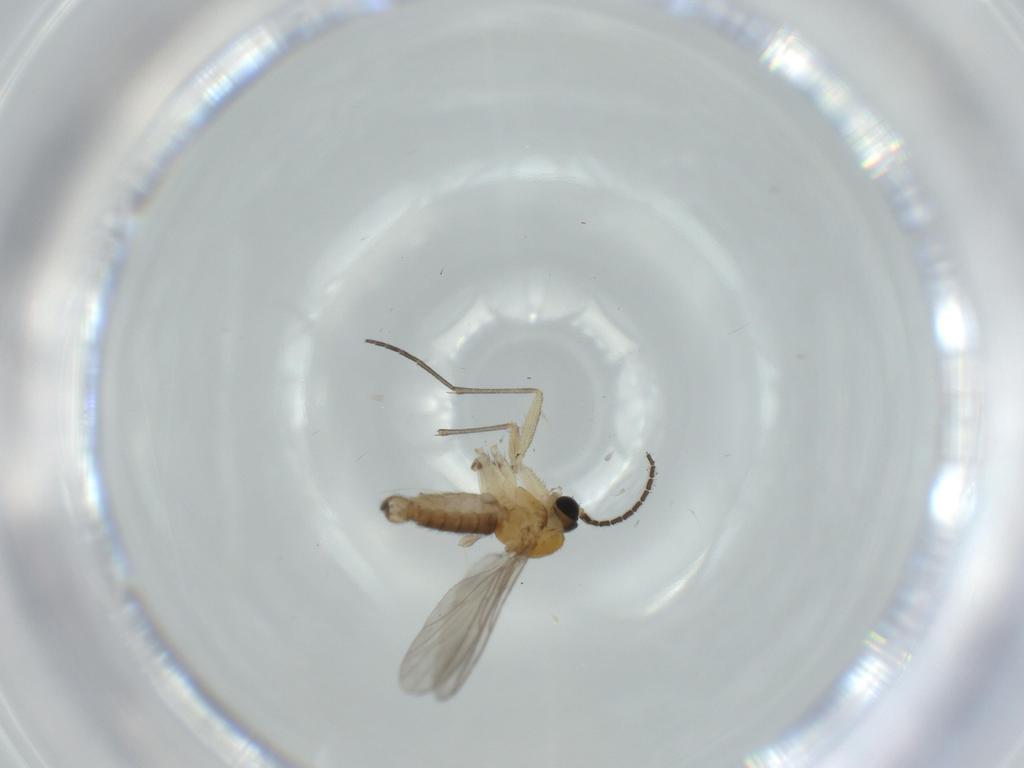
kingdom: Animalia
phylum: Arthropoda
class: Insecta
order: Diptera
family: Sciaridae
